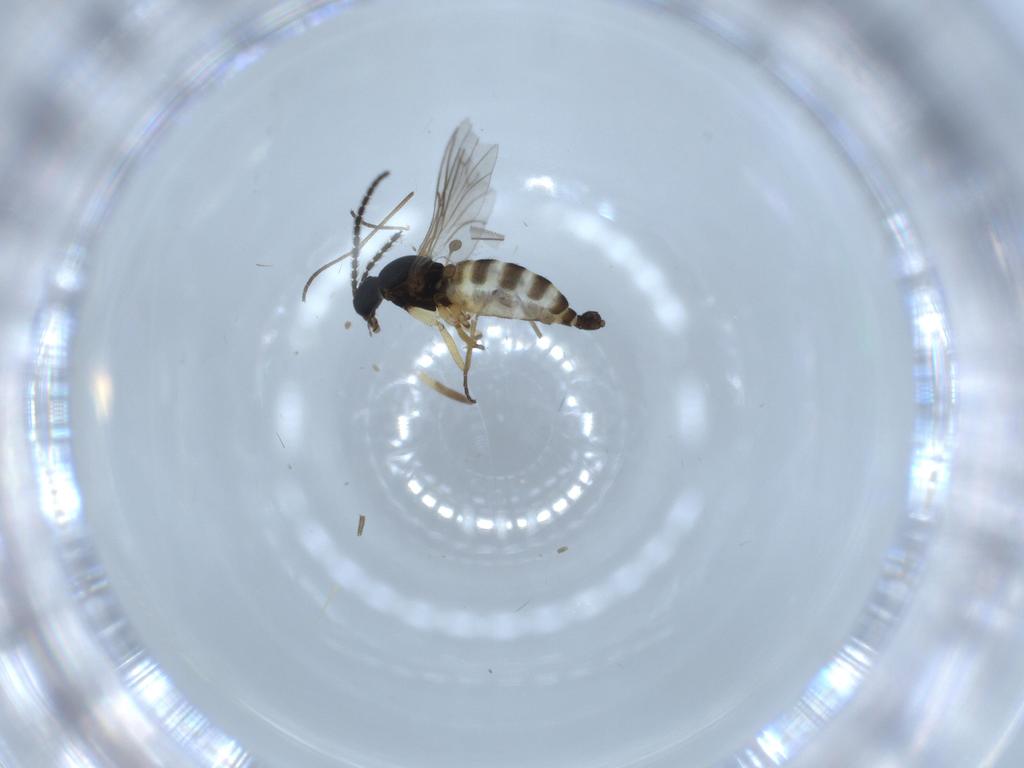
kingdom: Animalia
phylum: Arthropoda
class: Insecta
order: Diptera
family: Sciaridae
